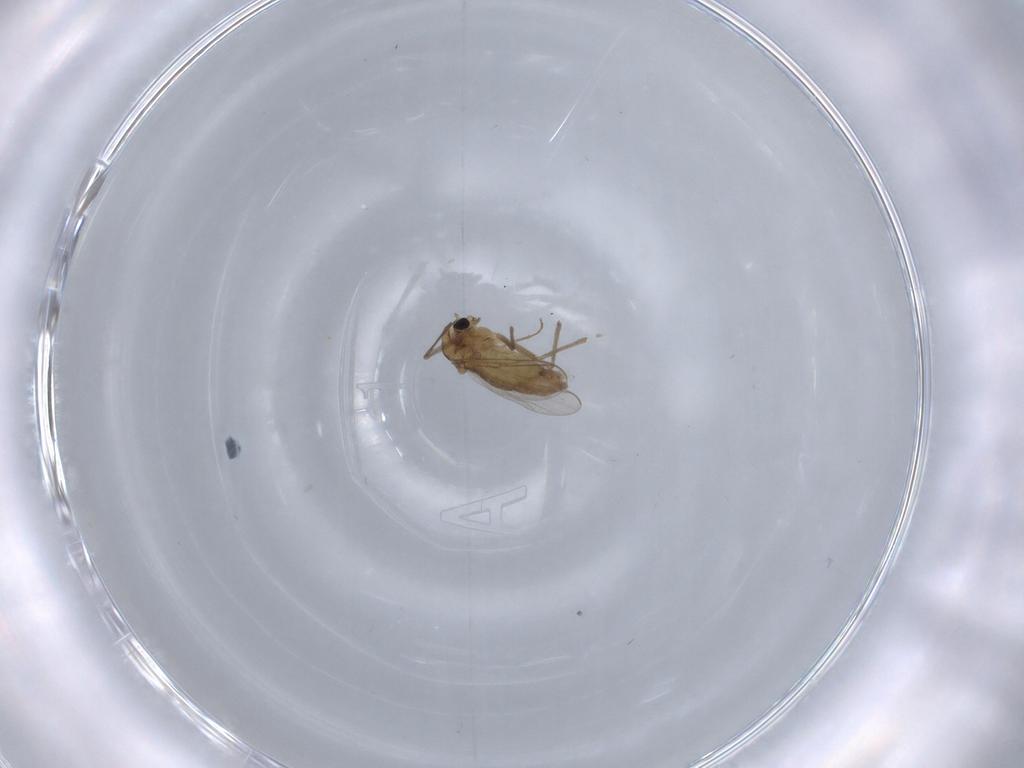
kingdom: Animalia
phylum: Arthropoda
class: Insecta
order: Diptera
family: Chironomidae
